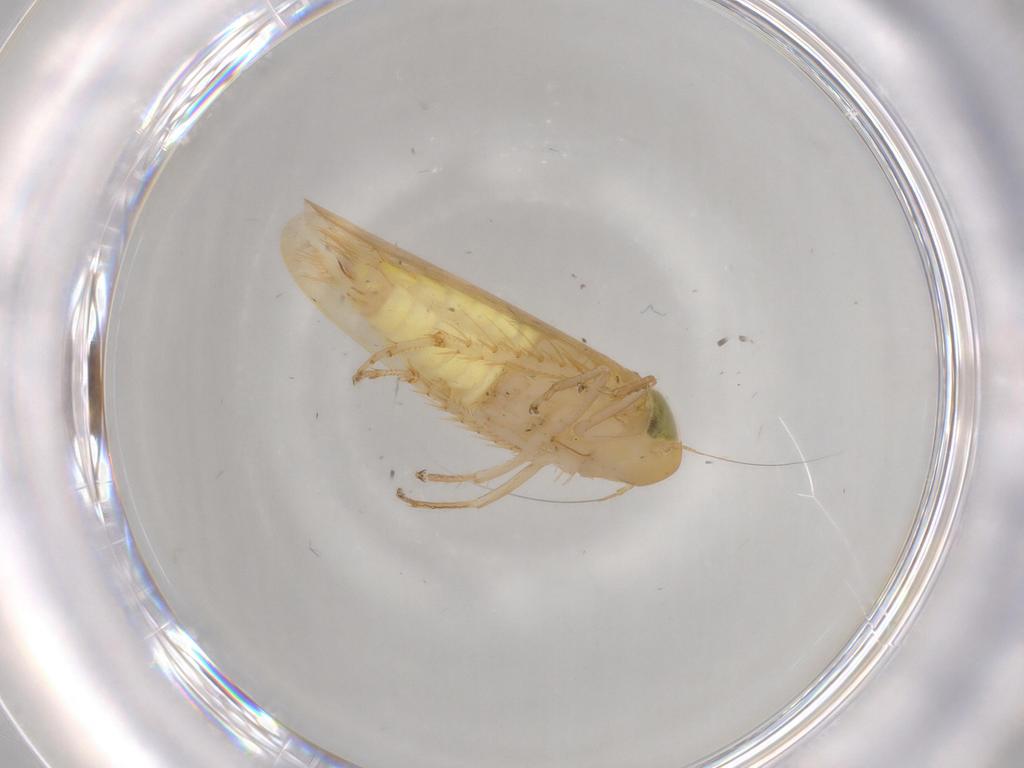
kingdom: Animalia
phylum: Arthropoda
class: Insecta
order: Hemiptera
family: Cicadellidae
